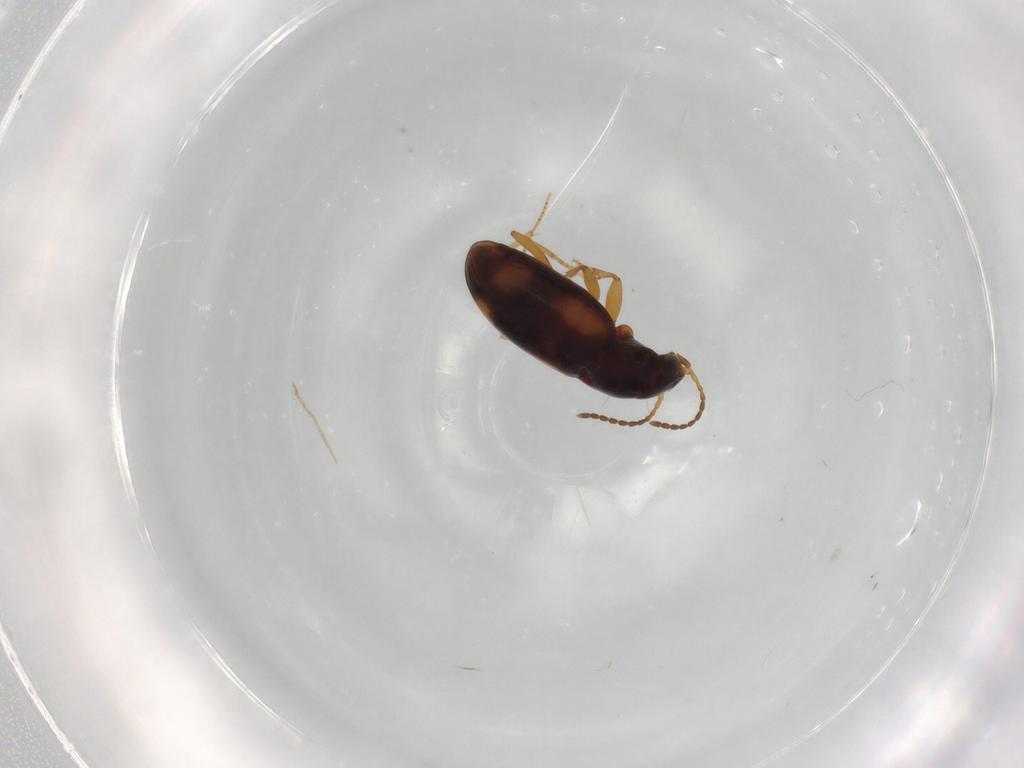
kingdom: Animalia
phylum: Arthropoda
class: Insecta
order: Coleoptera
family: Carabidae
